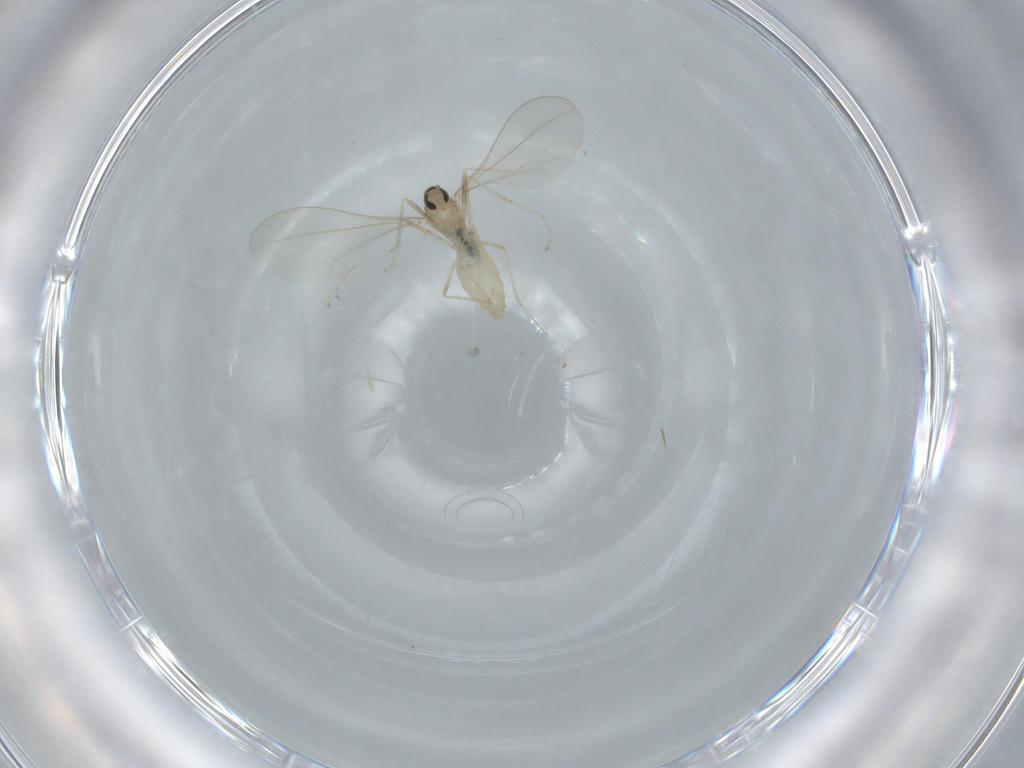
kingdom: Animalia
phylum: Arthropoda
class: Insecta
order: Diptera
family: Cecidomyiidae
